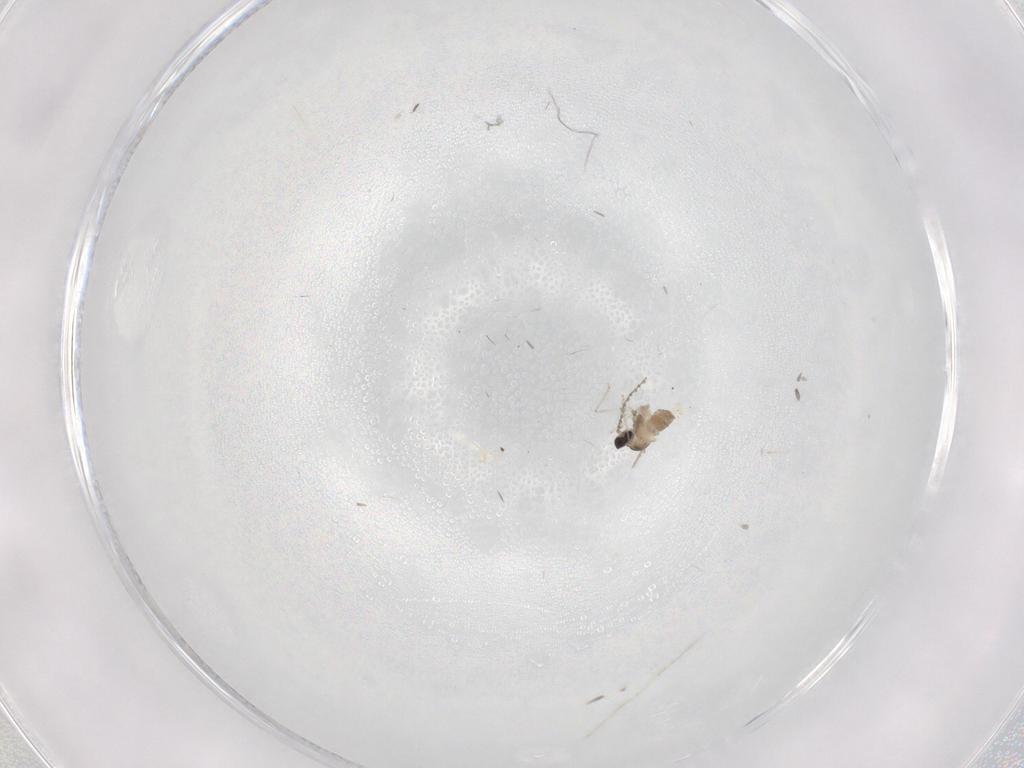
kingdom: Animalia
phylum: Arthropoda
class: Insecta
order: Diptera
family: Cecidomyiidae
